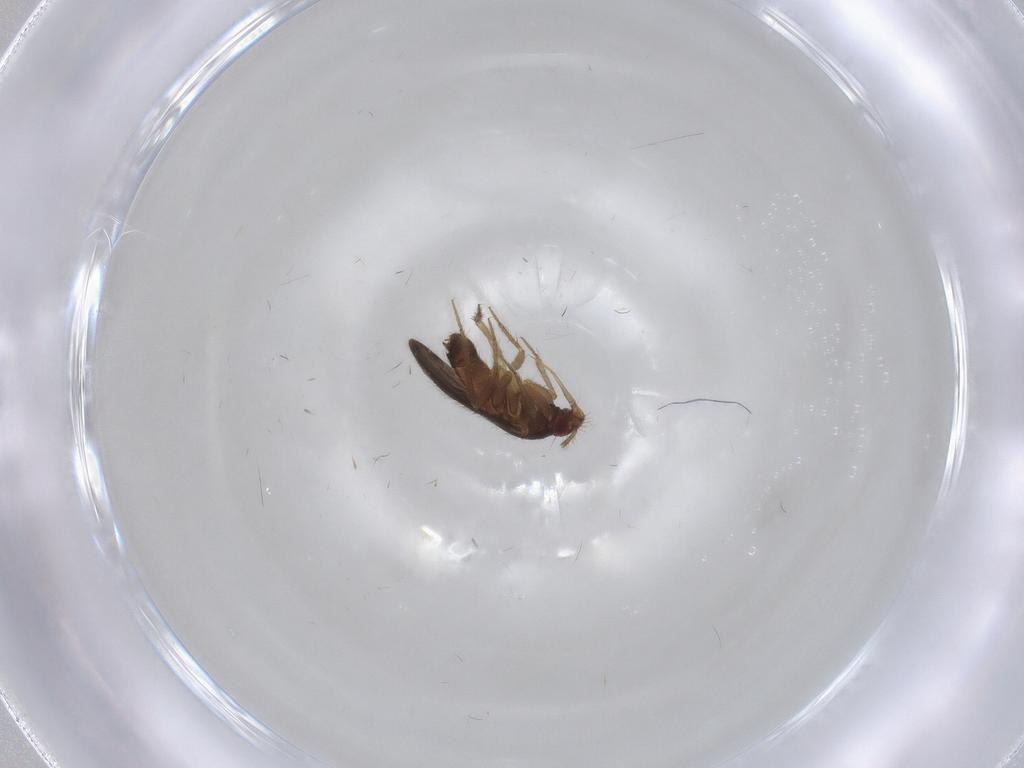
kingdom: Animalia
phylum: Arthropoda
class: Insecta
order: Hemiptera
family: Ceratocombidae
